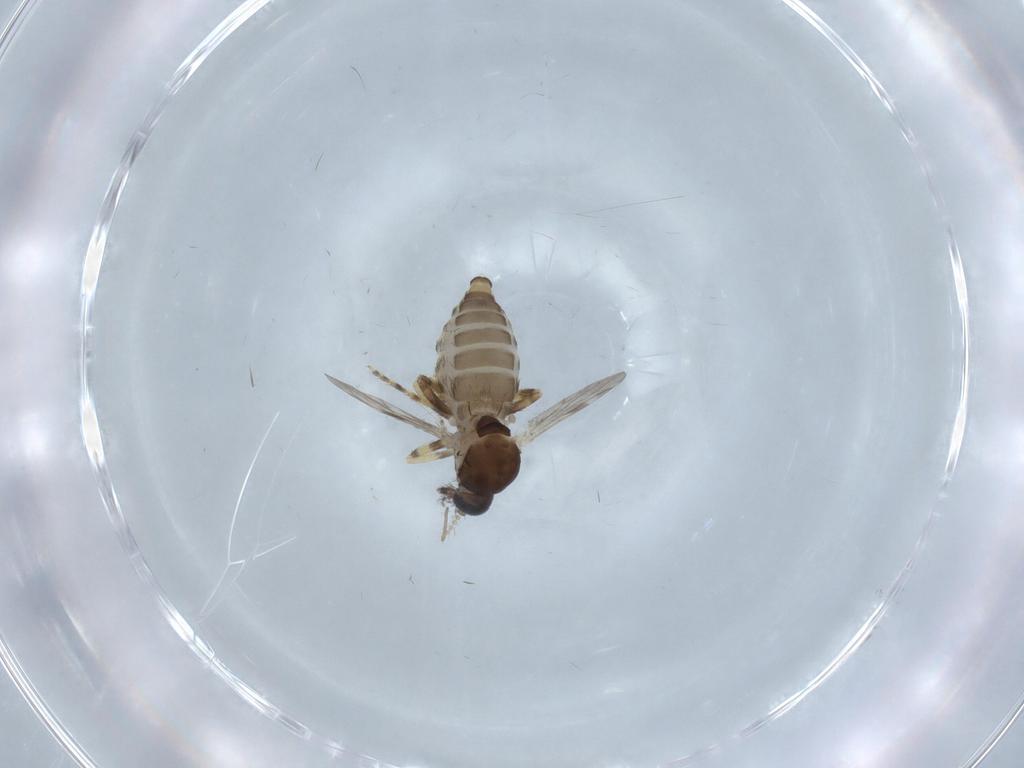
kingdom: Animalia
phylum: Arthropoda
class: Insecta
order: Diptera
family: Ceratopogonidae
